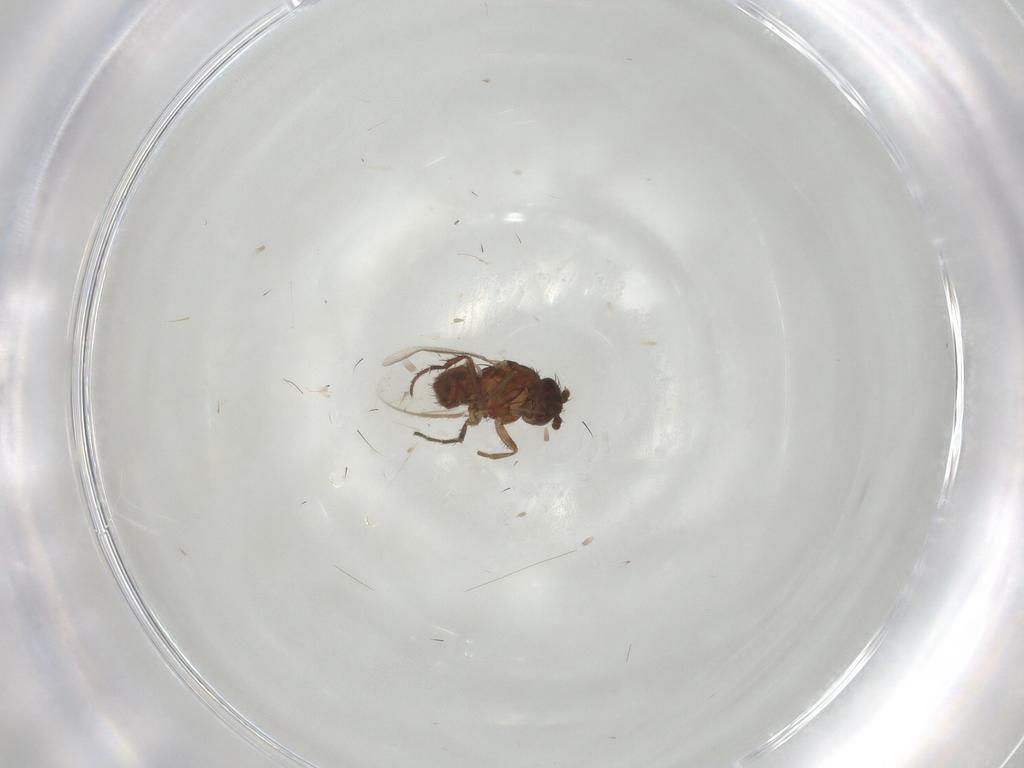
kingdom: Animalia
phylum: Arthropoda
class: Insecta
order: Diptera
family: Sphaeroceridae
